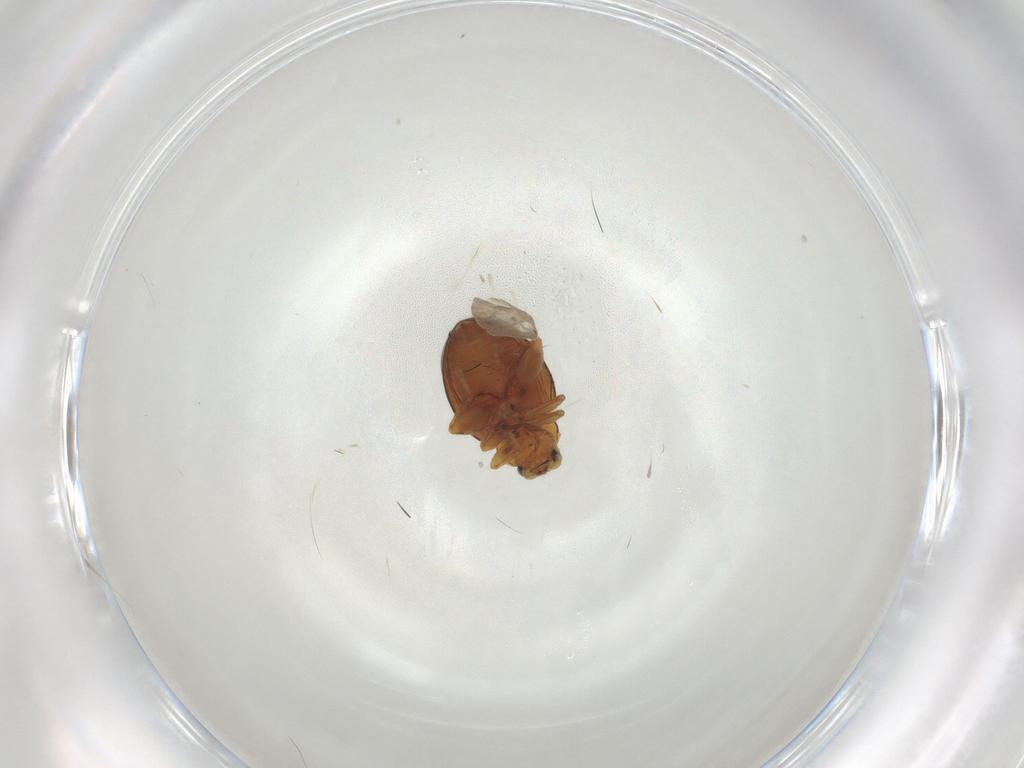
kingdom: Animalia
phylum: Arthropoda
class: Insecta
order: Coleoptera
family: Chrysomelidae
